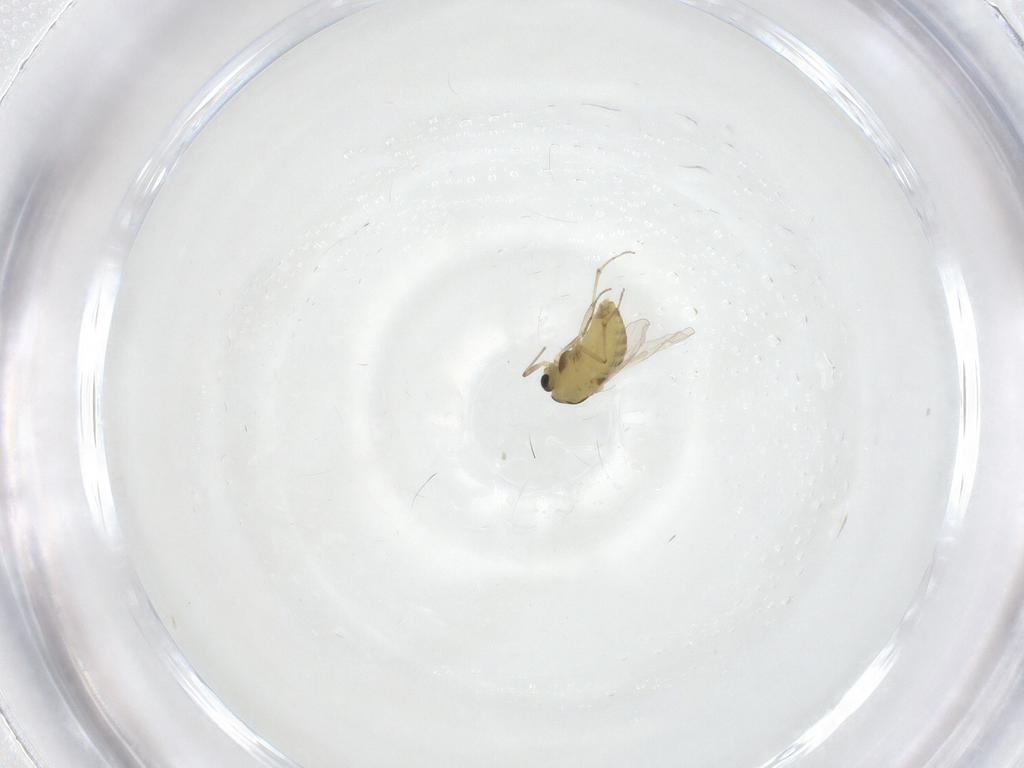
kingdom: Animalia
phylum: Arthropoda
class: Insecta
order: Diptera
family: Chironomidae
